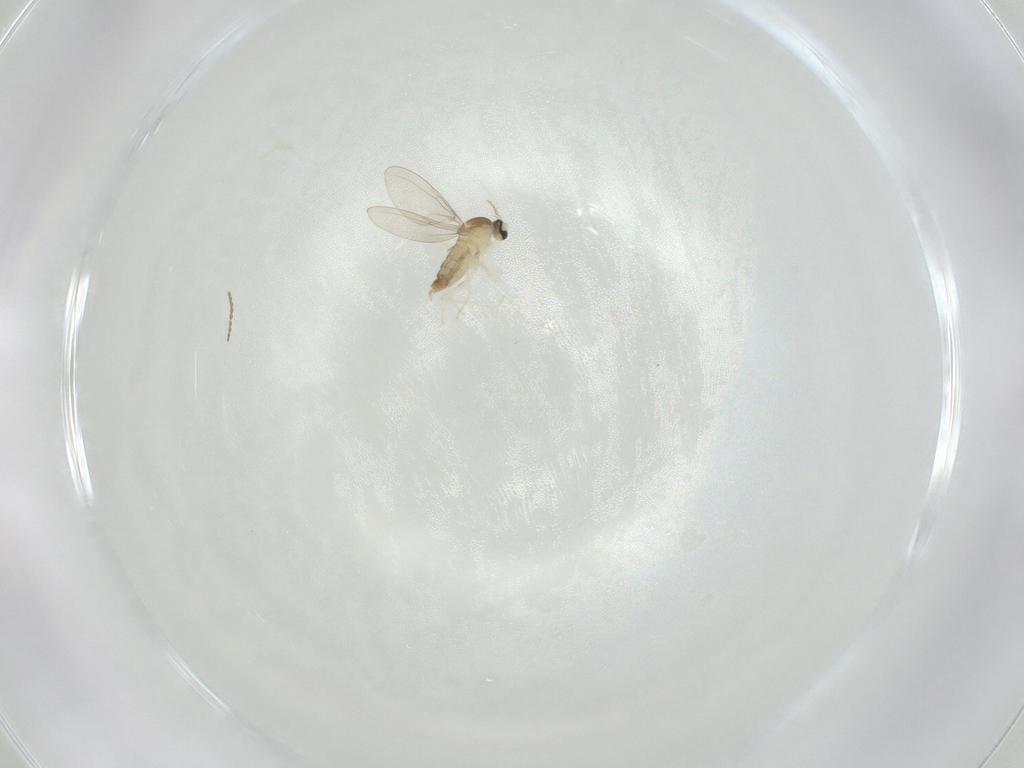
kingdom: Animalia
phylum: Arthropoda
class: Insecta
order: Diptera
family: Cecidomyiidae
